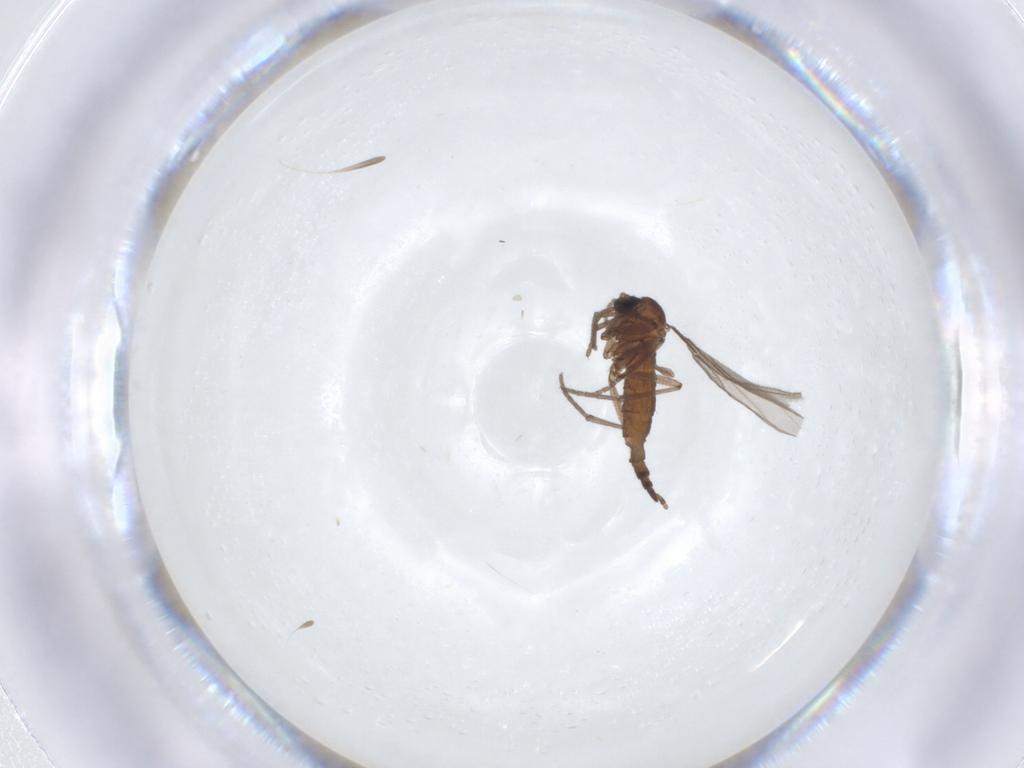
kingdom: Animalia
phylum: Arthropoda
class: Insecta
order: Diptera
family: Sciaridae
